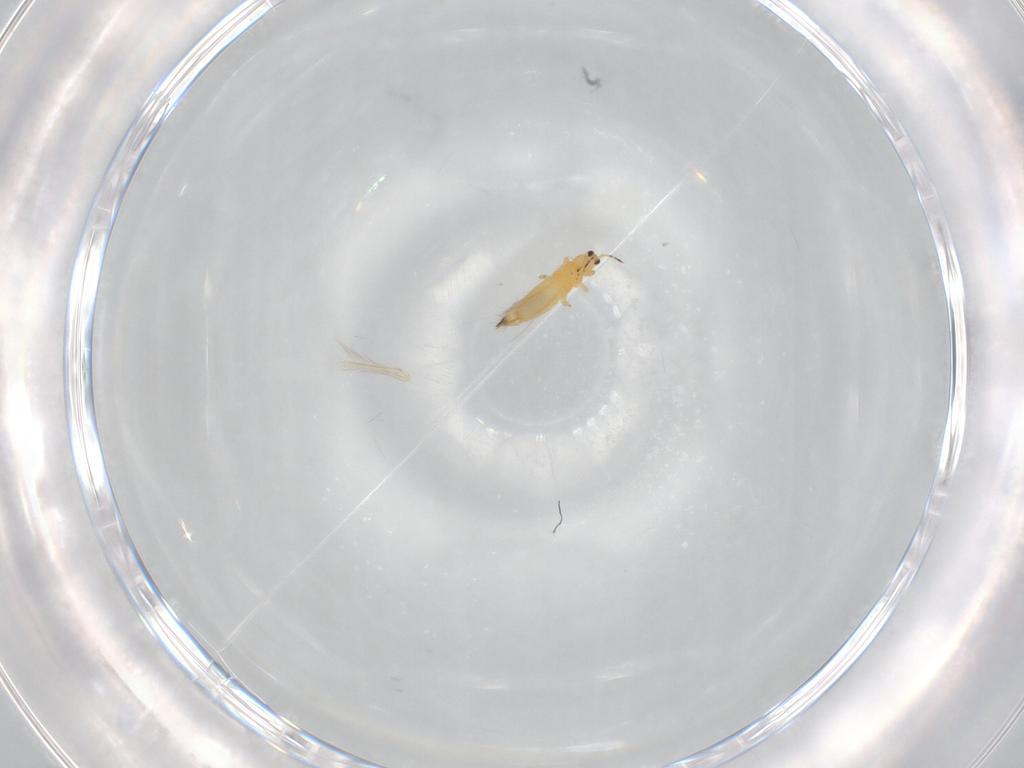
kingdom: Animalia
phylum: Arthropoda
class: Insecta
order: Thysanoptera
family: Thripidae
